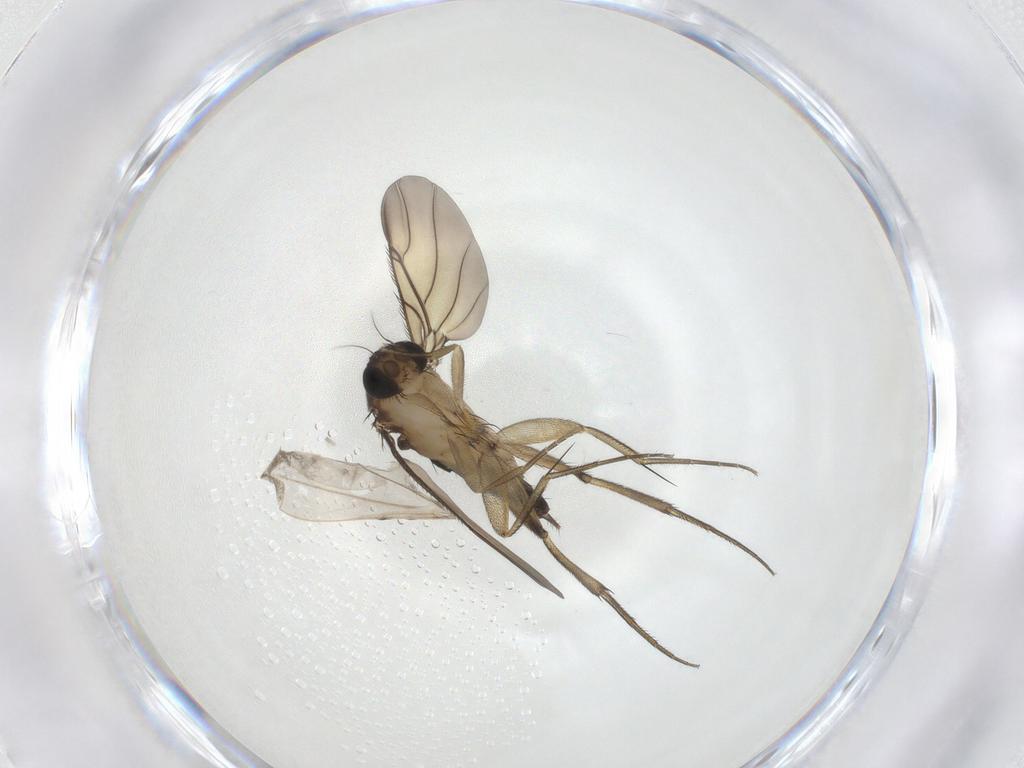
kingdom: Animalia
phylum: Arthropoda
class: Insecta
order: Diptera
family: Cecidomyiidae
